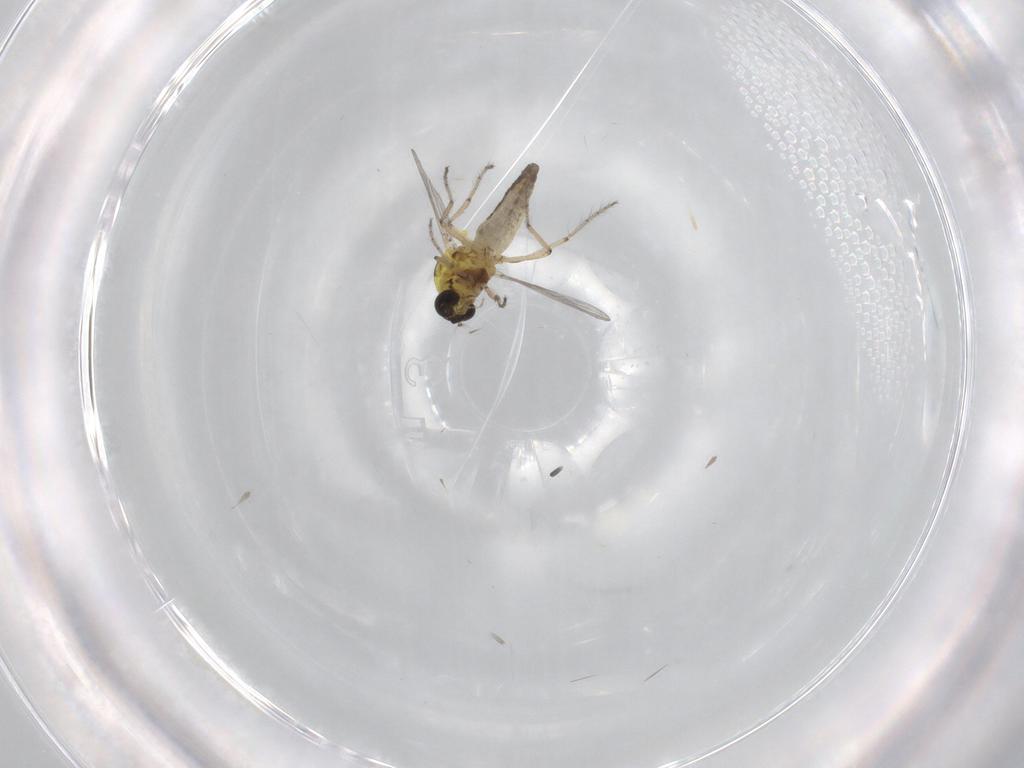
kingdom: Animalia
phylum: Arthropoda
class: Insecta
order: Diptera
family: Ceratopogonidae
